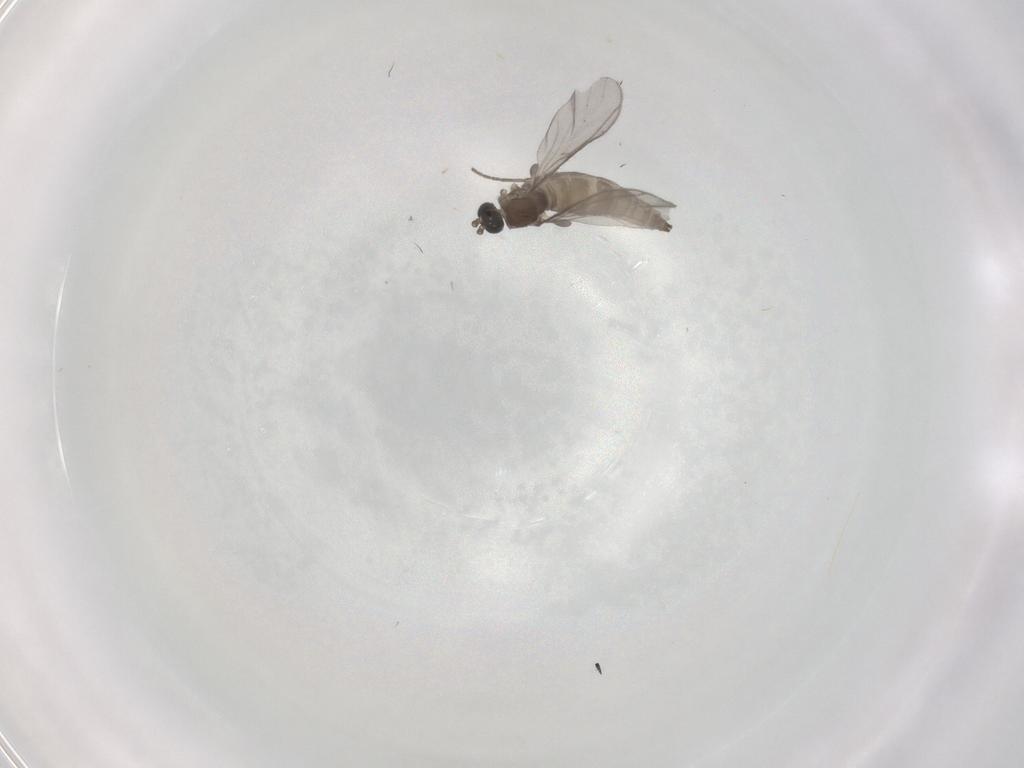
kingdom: Animalia
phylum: Arthropoda
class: Insecta
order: Diptera
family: Sciaridae
